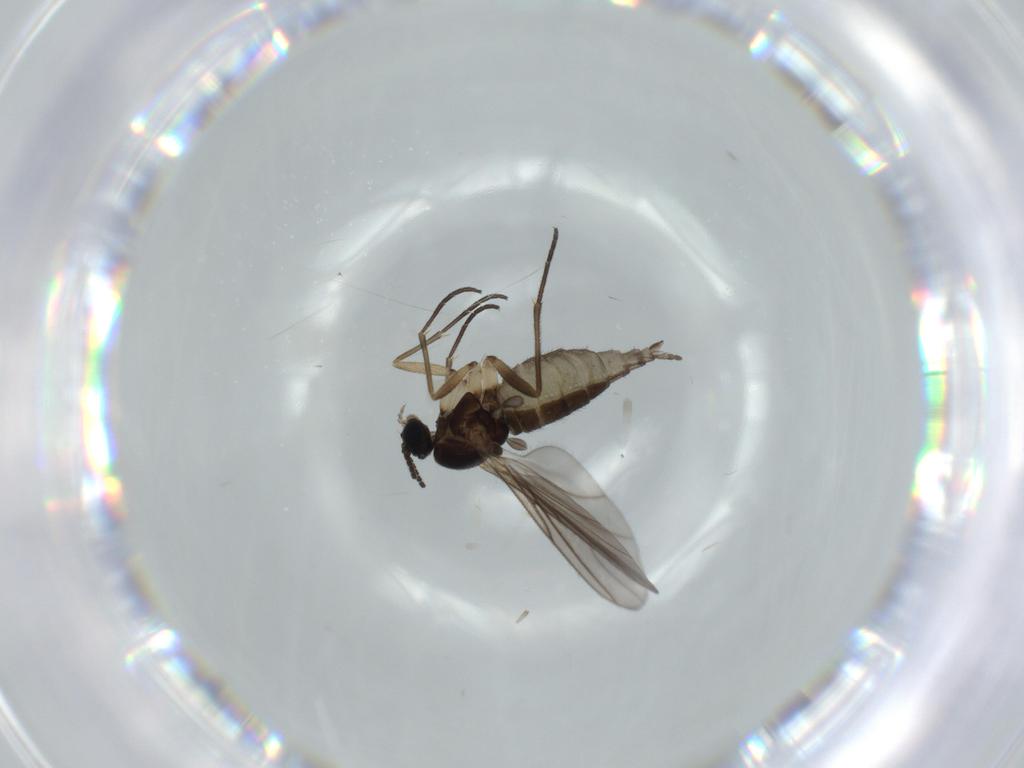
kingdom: Animalia
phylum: Arthropoda
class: Insecta
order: Diptera
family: Sciaridae
